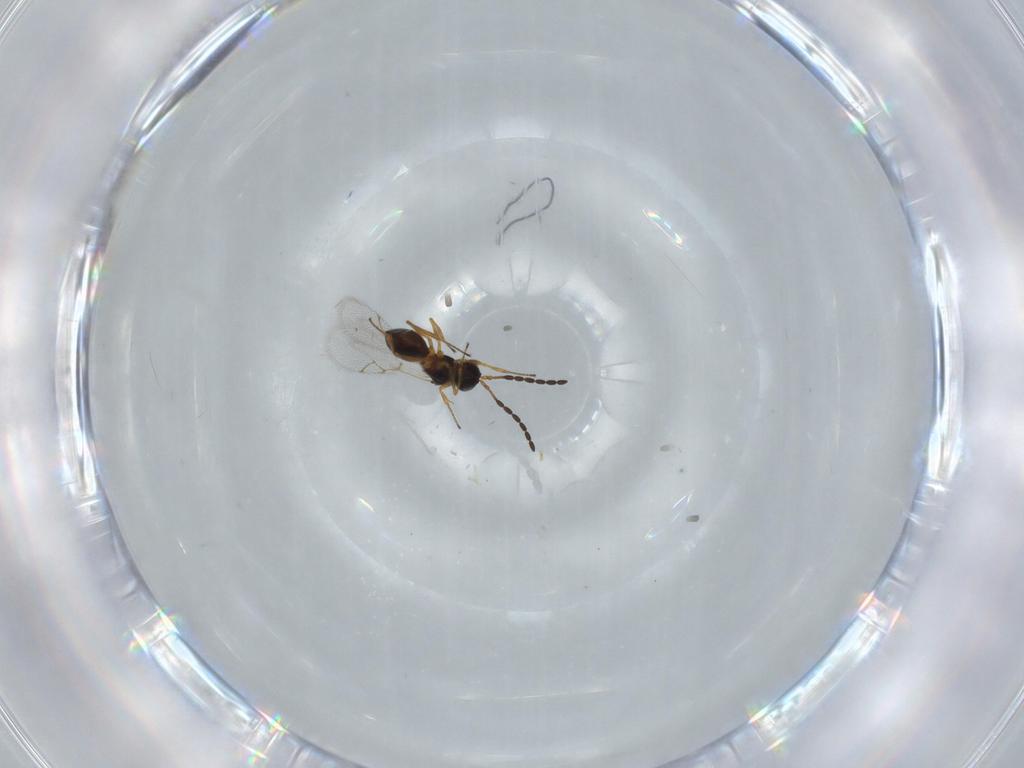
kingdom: Animalia
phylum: Arthropoda
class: Insecta
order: Hymenoptera
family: Figitidae
